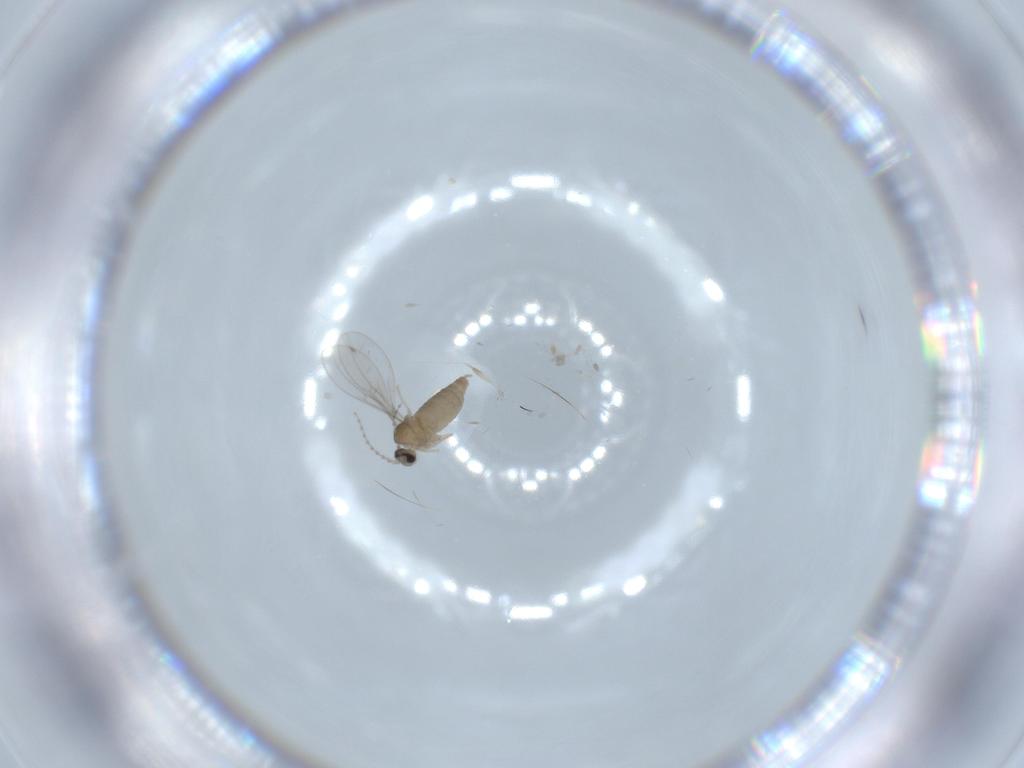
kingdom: Animalia
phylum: Arthropoda
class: Insecta
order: Diptera
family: Cecidomyiidae
